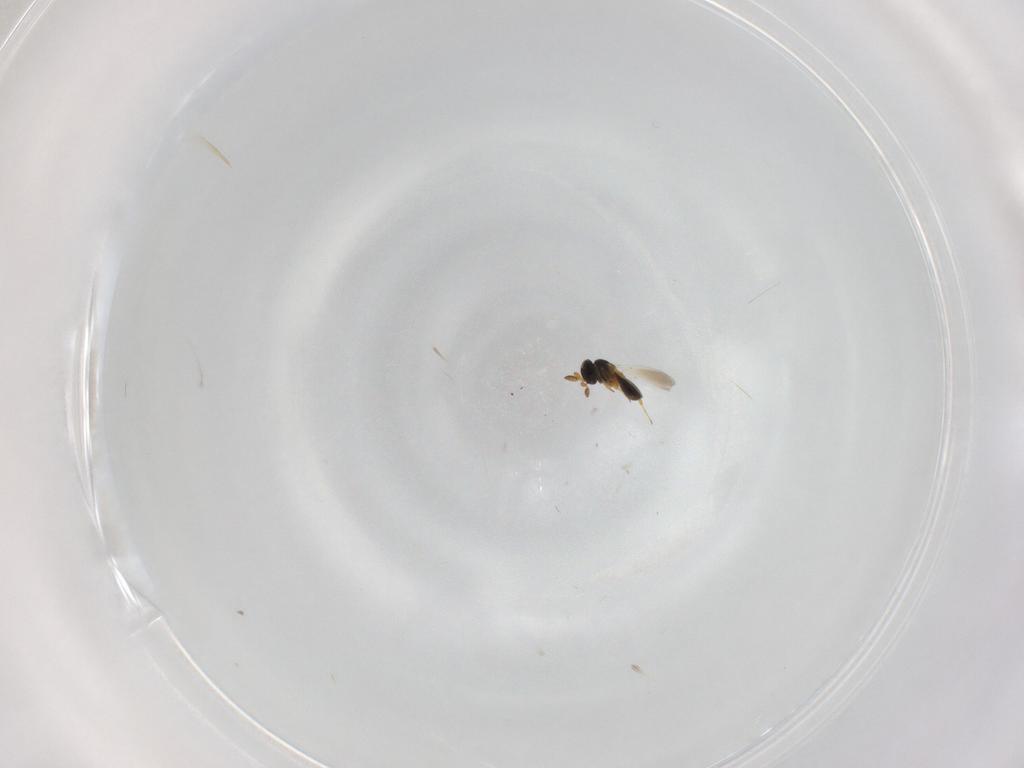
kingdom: Animalia
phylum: Arthropoda
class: Insecta
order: Hymenoptera
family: Platygastridae
